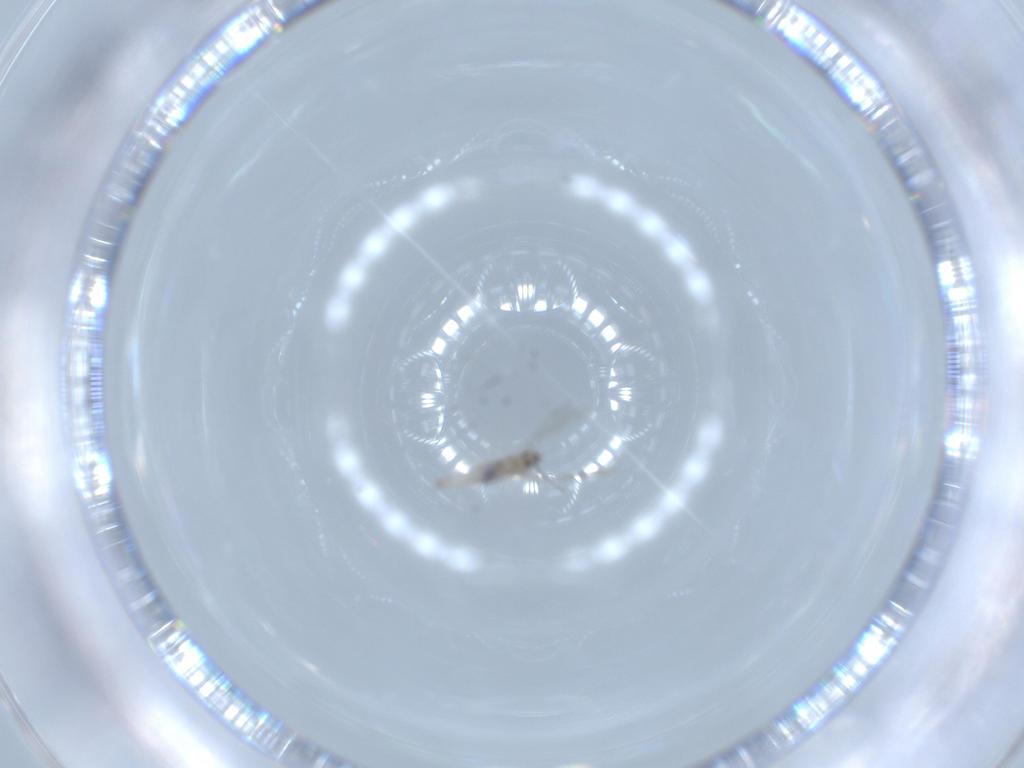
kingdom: Animalia
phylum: Arthropoda
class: Insecta
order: Diptera
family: Cecidomyiidae
